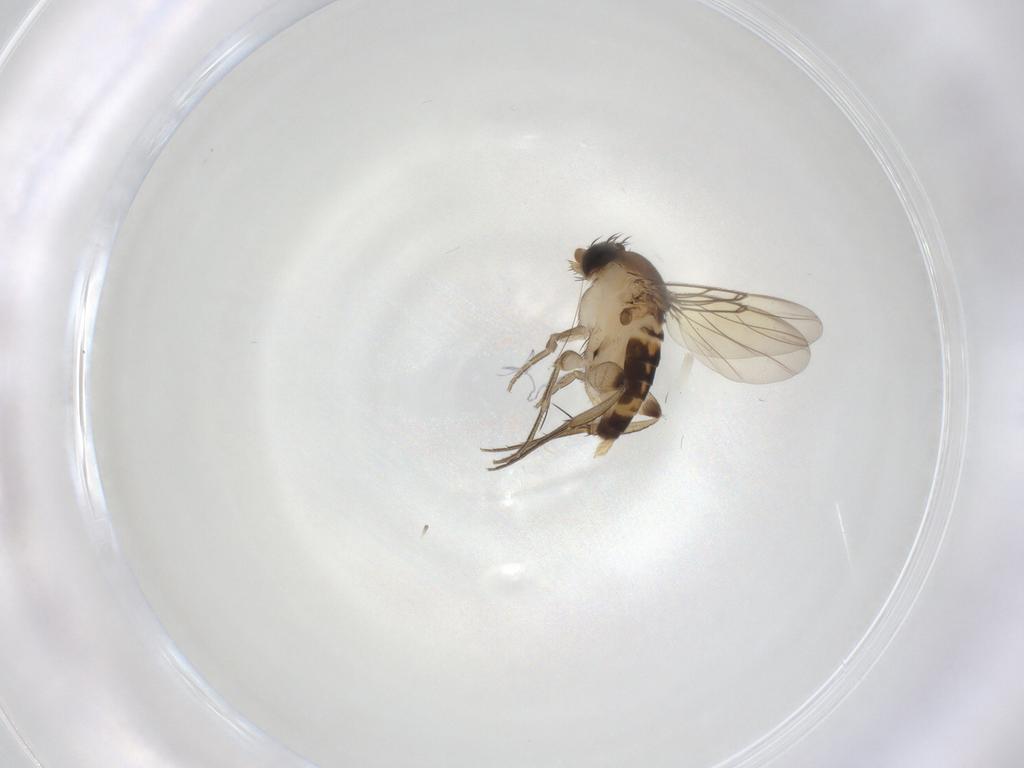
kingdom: Animalia
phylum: Arthropoda
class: Insecta
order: Diptera
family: Phoridae
